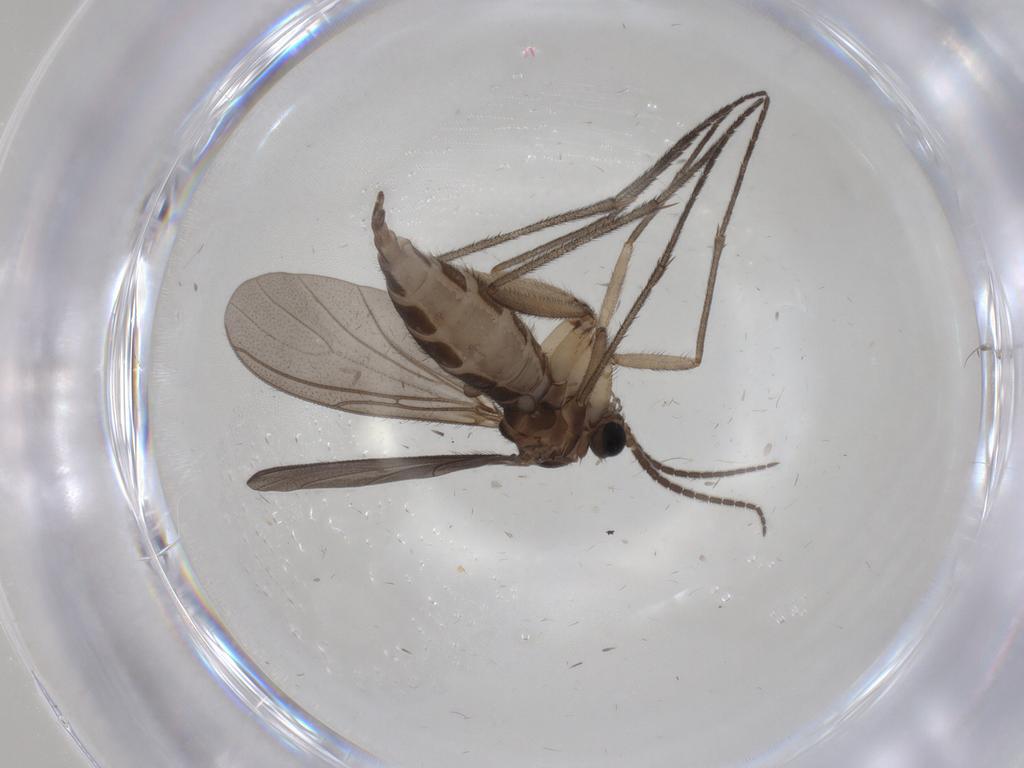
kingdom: Animalia
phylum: Arthropoda
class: Insecta
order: Diptera
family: Sciaridae
